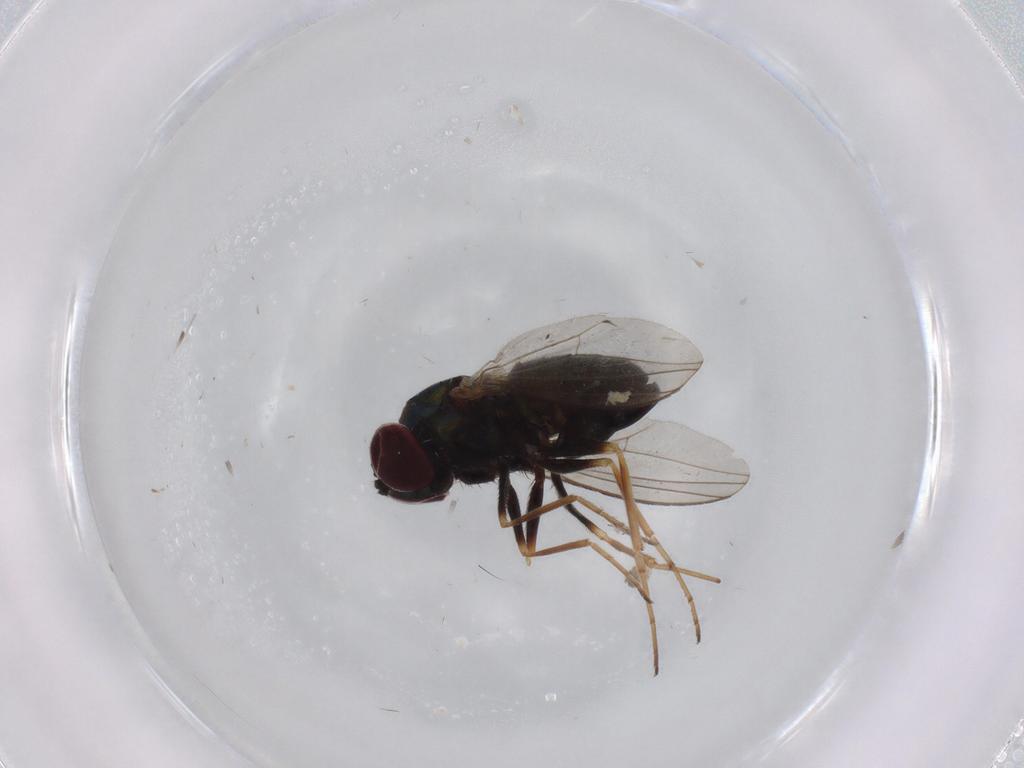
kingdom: Animalia
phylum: Arthropoda
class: Insecta
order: Diptera
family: Dolichopodidae
